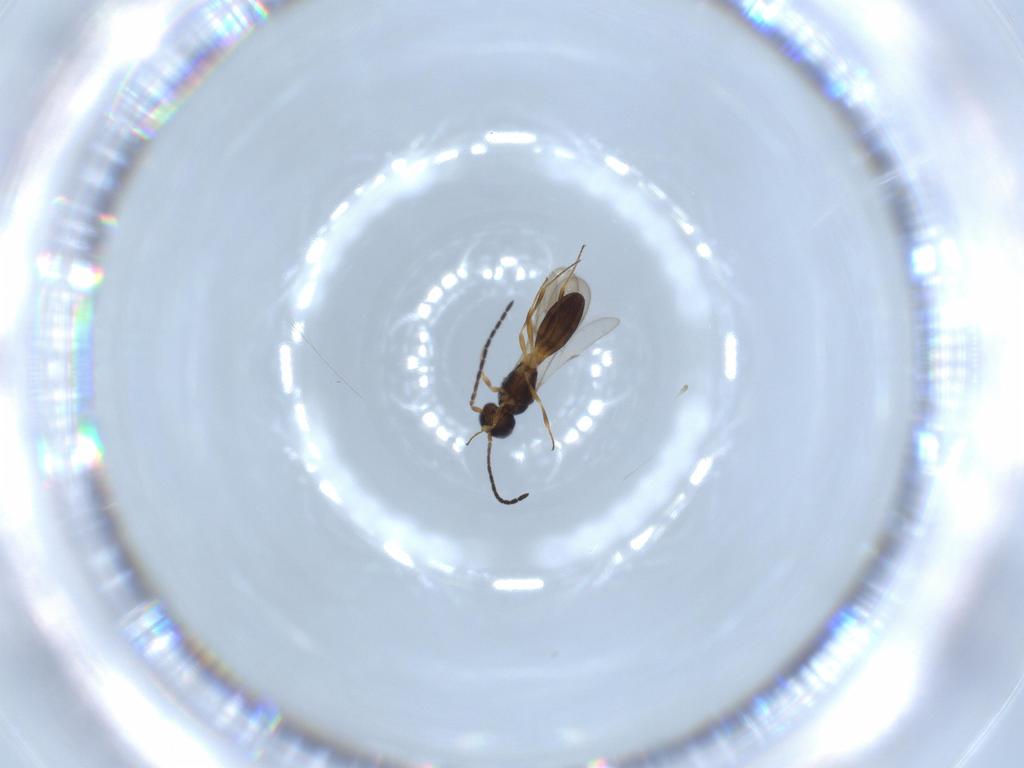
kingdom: Animalia
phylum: Arthropoda
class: Insecta
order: Hymenoptera
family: Scelionidae
